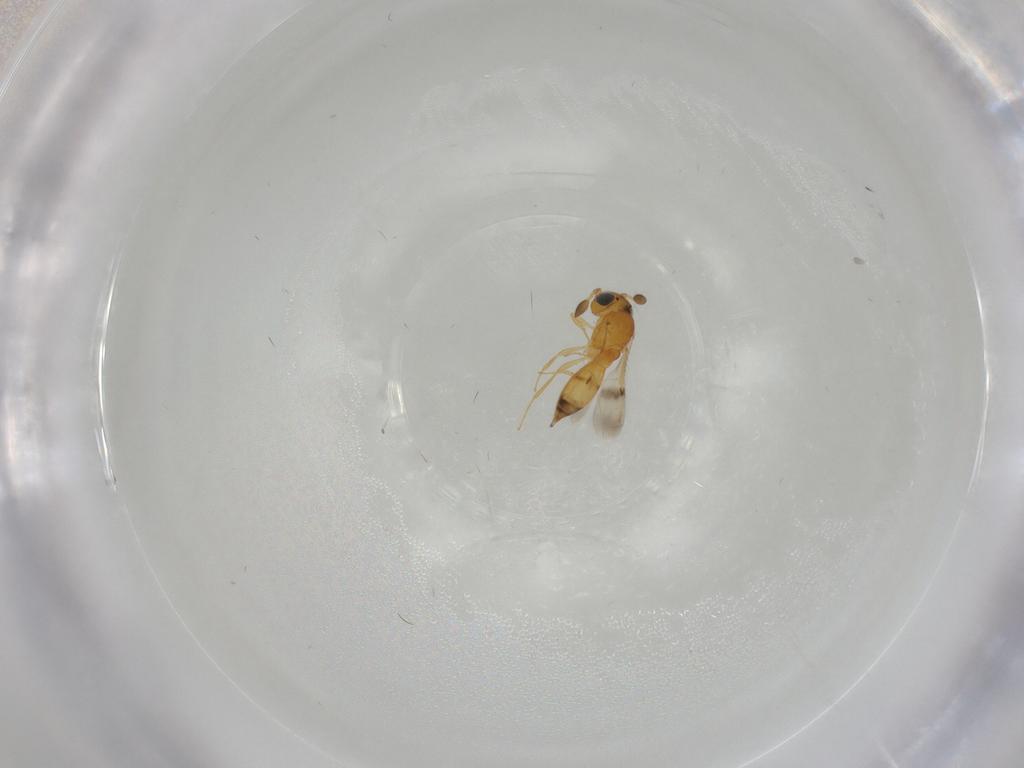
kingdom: Animalia
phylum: Arthropoda
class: Insecta
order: Hymenoptera
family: Scelionidae
